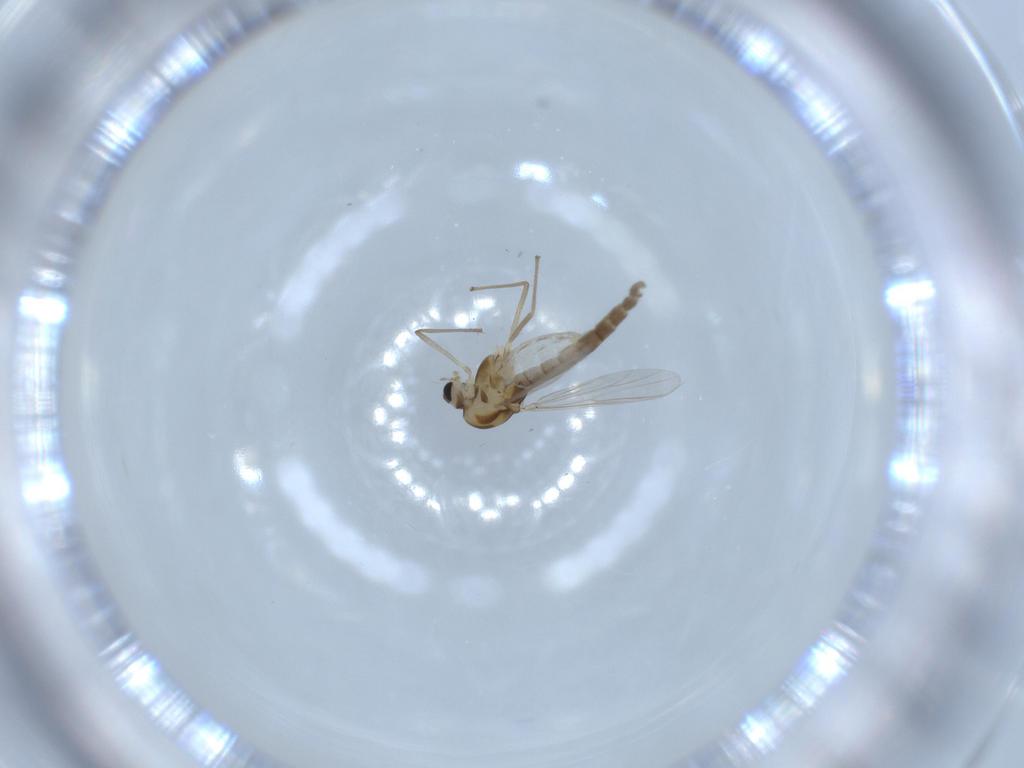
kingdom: Animalia
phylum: Arthropoda
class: Insecta
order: Diptera
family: Chironomidae
